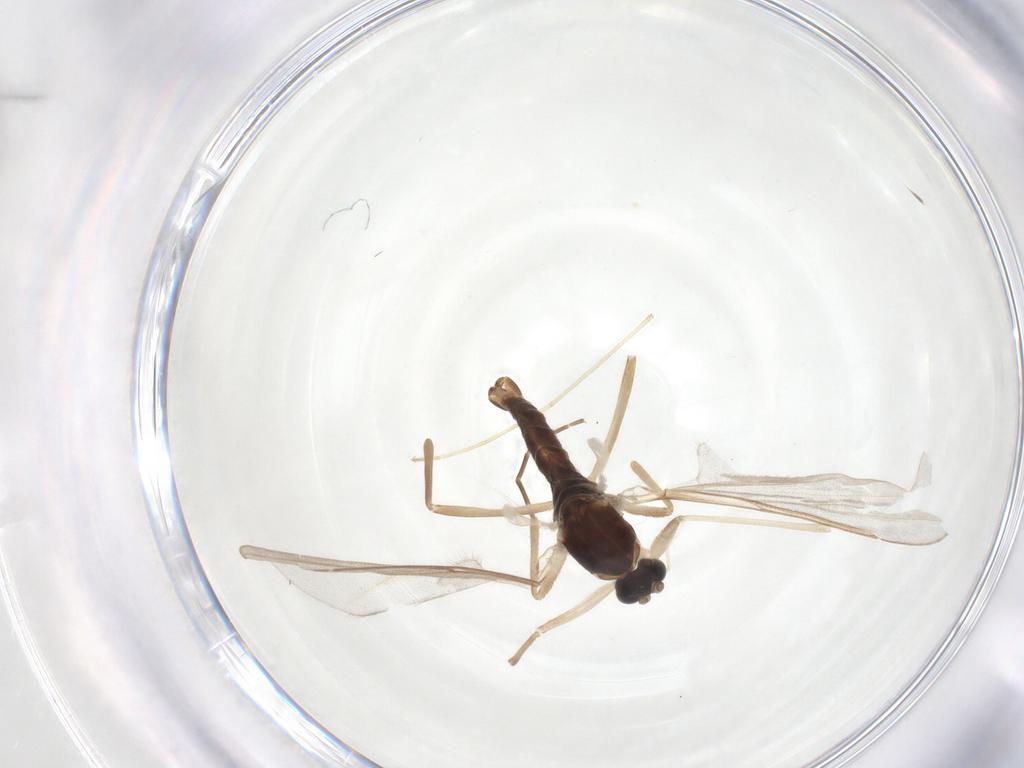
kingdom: Animalia
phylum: Arthropoda
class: Insecta
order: Diptera
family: Cecidomyiidae
